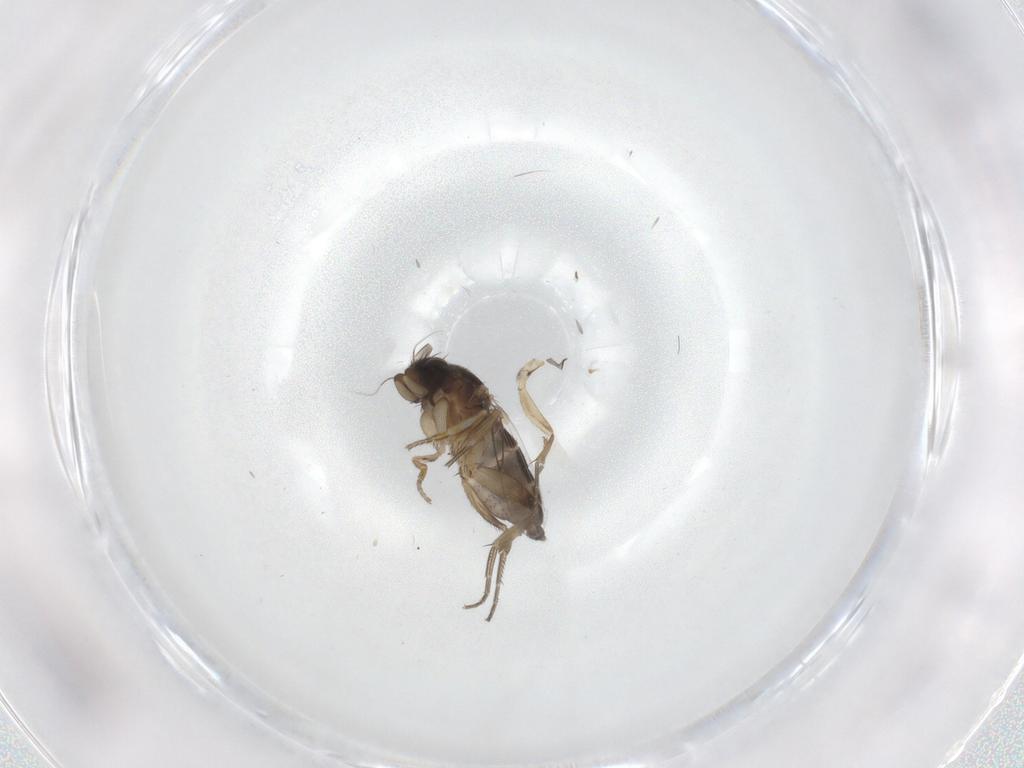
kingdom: Animalia
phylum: Arthropoda
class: Insecta
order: Diptera
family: Phoridae
